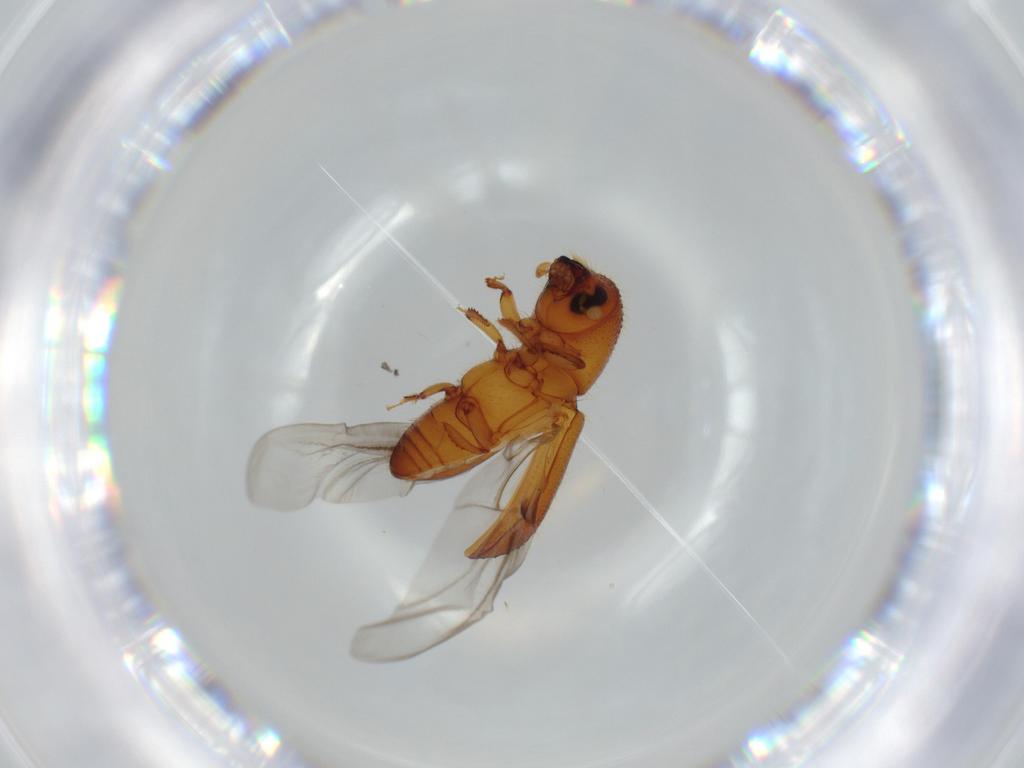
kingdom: Animalia
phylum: Arthropoda
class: Insecta
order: Coleoptera
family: Curculionidae
